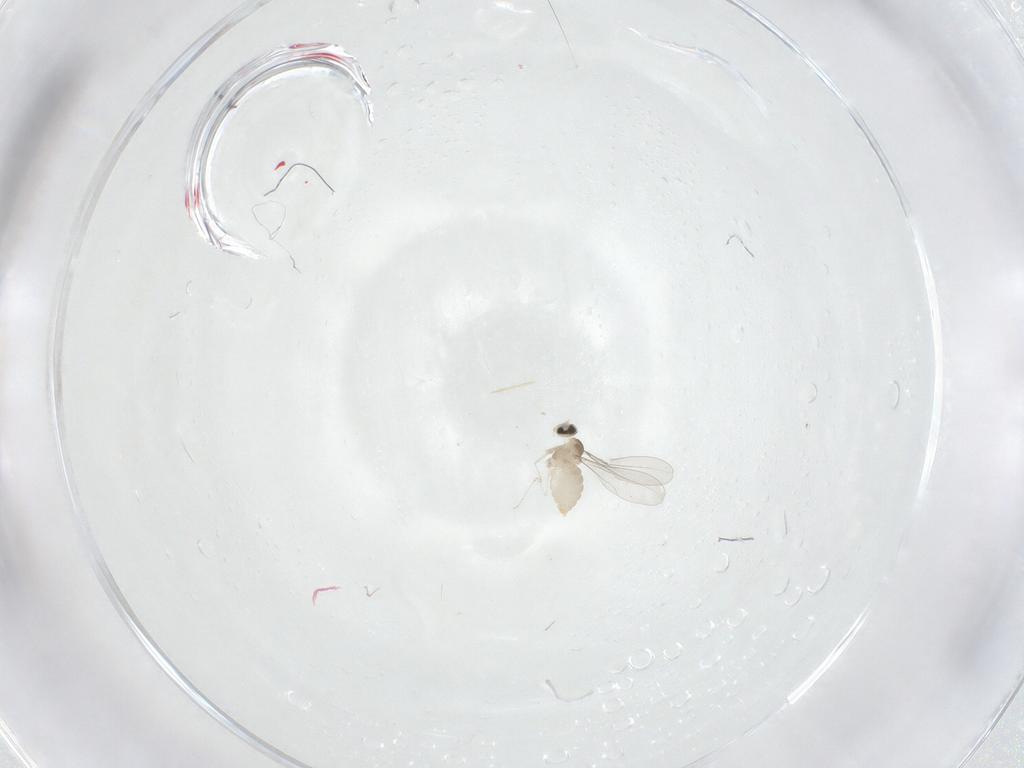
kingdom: Animalia
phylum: Arthropoda
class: Insecta
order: Diptera
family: Cecidomyiidae
